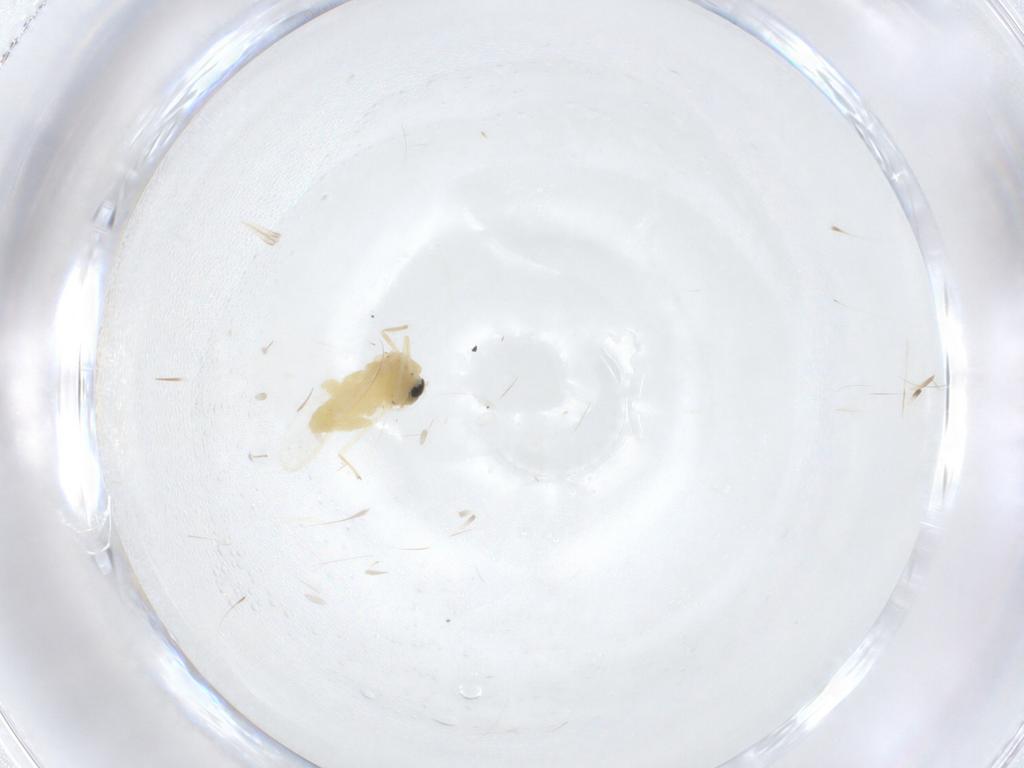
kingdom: Animalia
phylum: Arthropoda
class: Insecta
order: Diptera
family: Chironomidae
